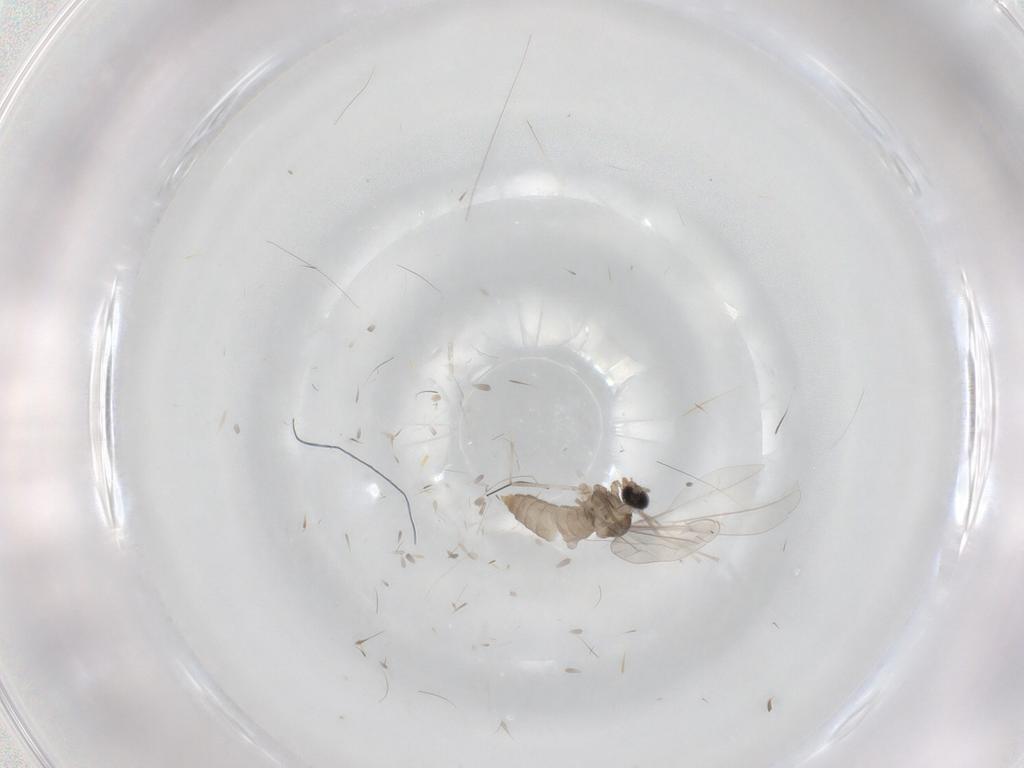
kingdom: Animalia
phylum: Arthropoda
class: Insecta
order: Diptera
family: Chloropidae
